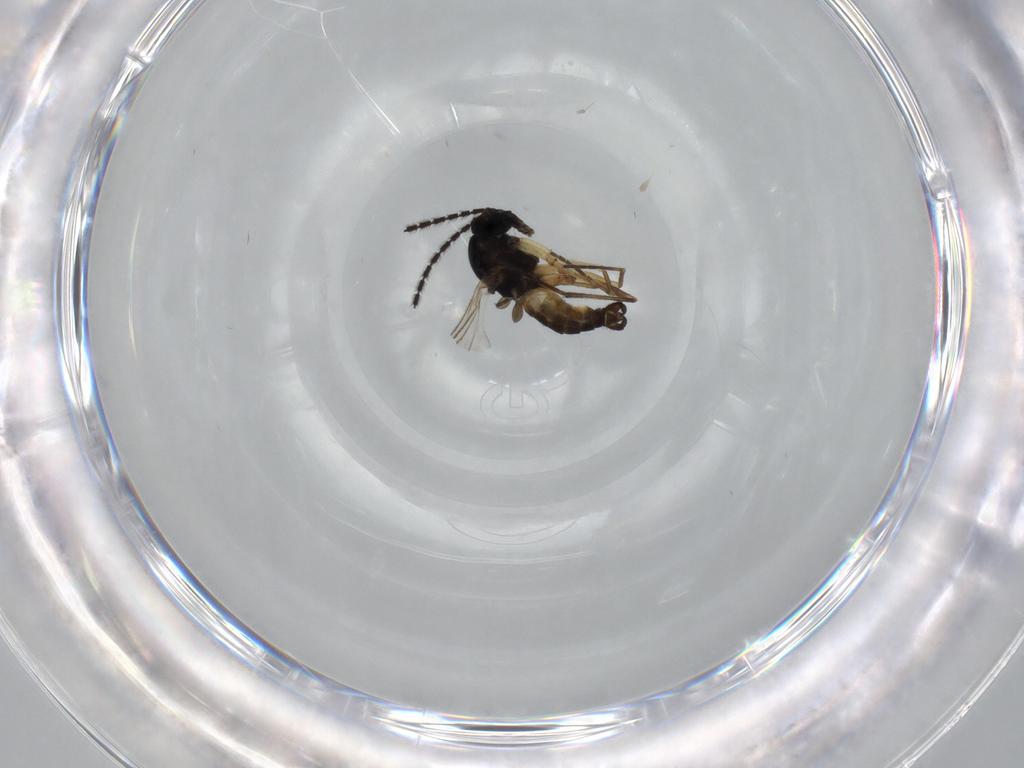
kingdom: Animalia
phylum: Arthropoda
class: Insecta
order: Diptera
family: Sciaridae
